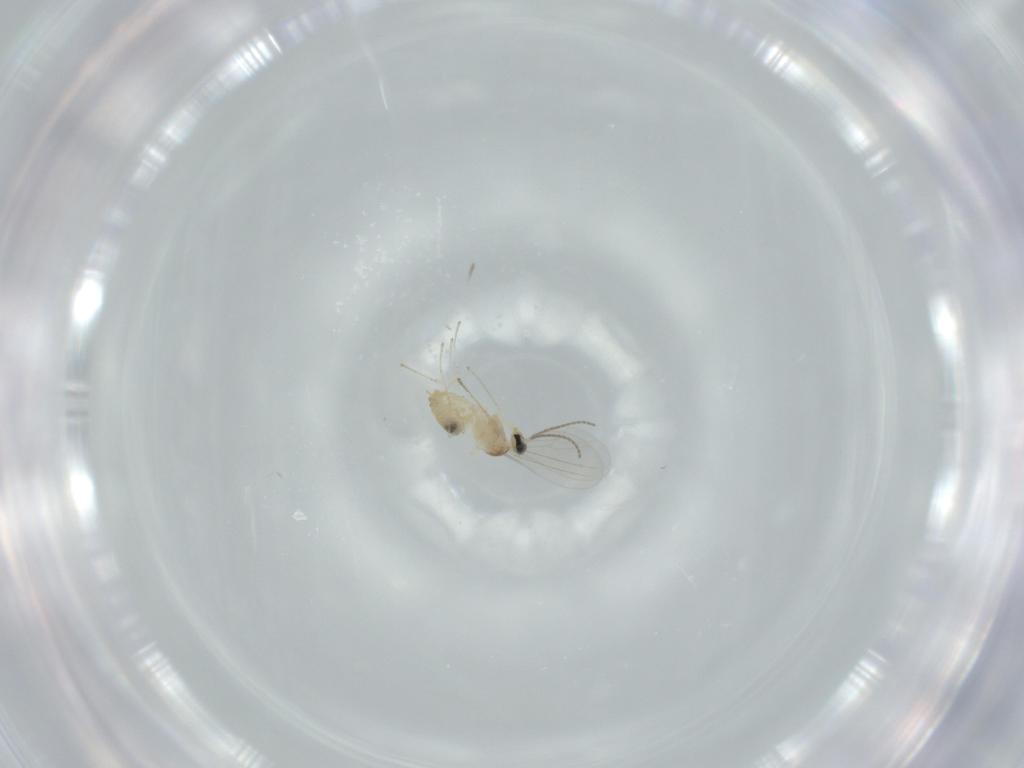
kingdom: Animalia
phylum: Arthropoda
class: Insecta
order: Diptera
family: Cecidomyiidae
